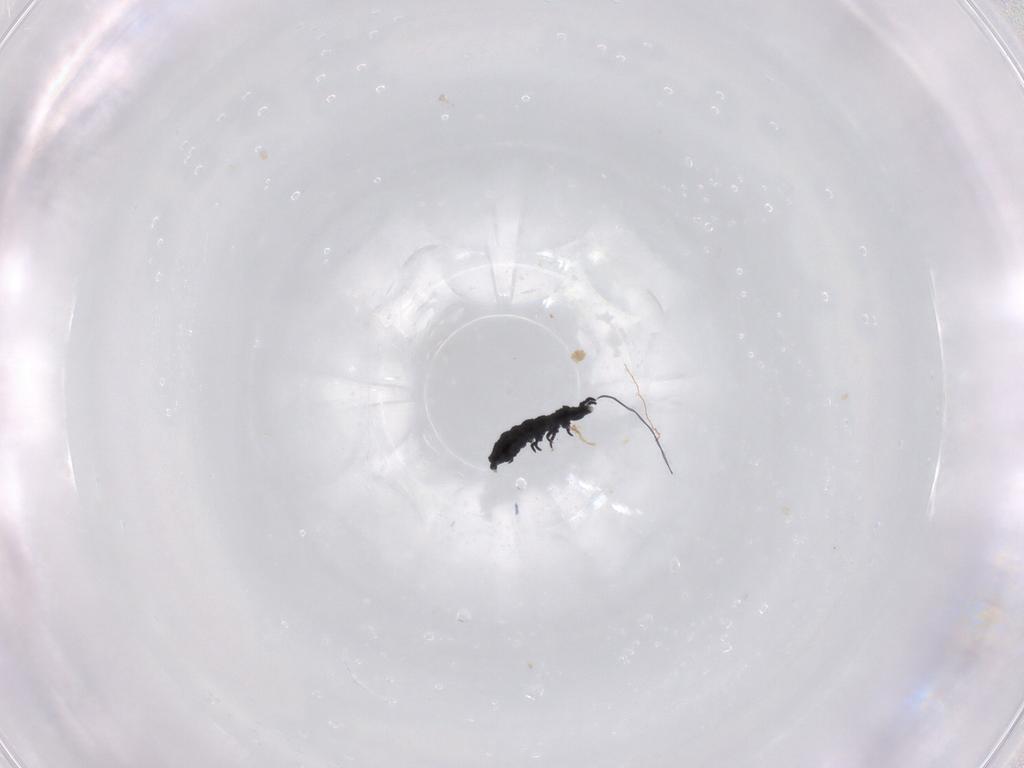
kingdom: Animalia
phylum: Arthropoda
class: Collembola
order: Poduromorpha
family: Hypogastruridae
